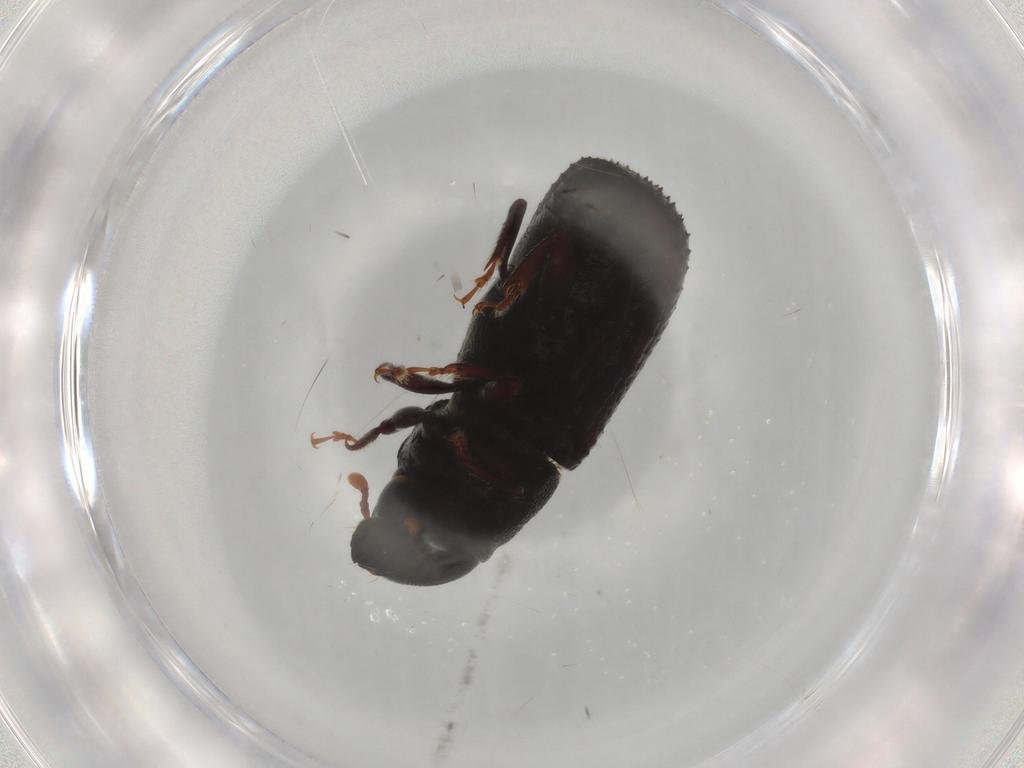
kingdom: Animalia
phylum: Arthropoda
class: Insecta
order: Coleoptera
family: Curculionidae
